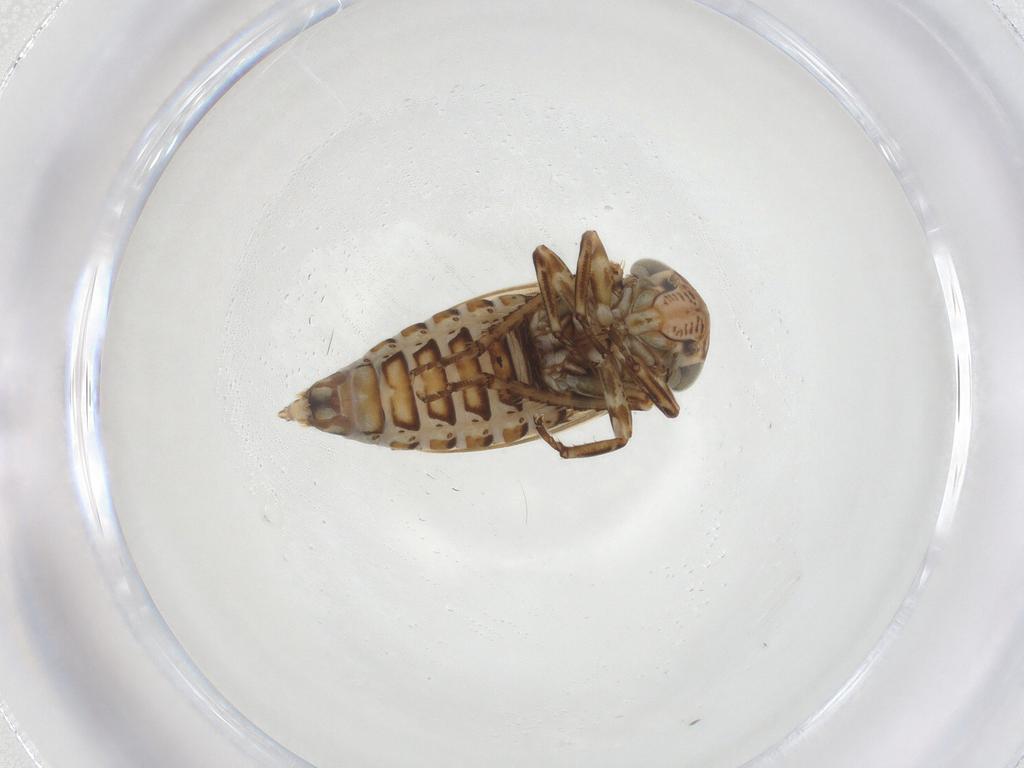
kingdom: Animalia
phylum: Arthropoda
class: Insecta
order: Hemiptera
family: Cicadellidae
